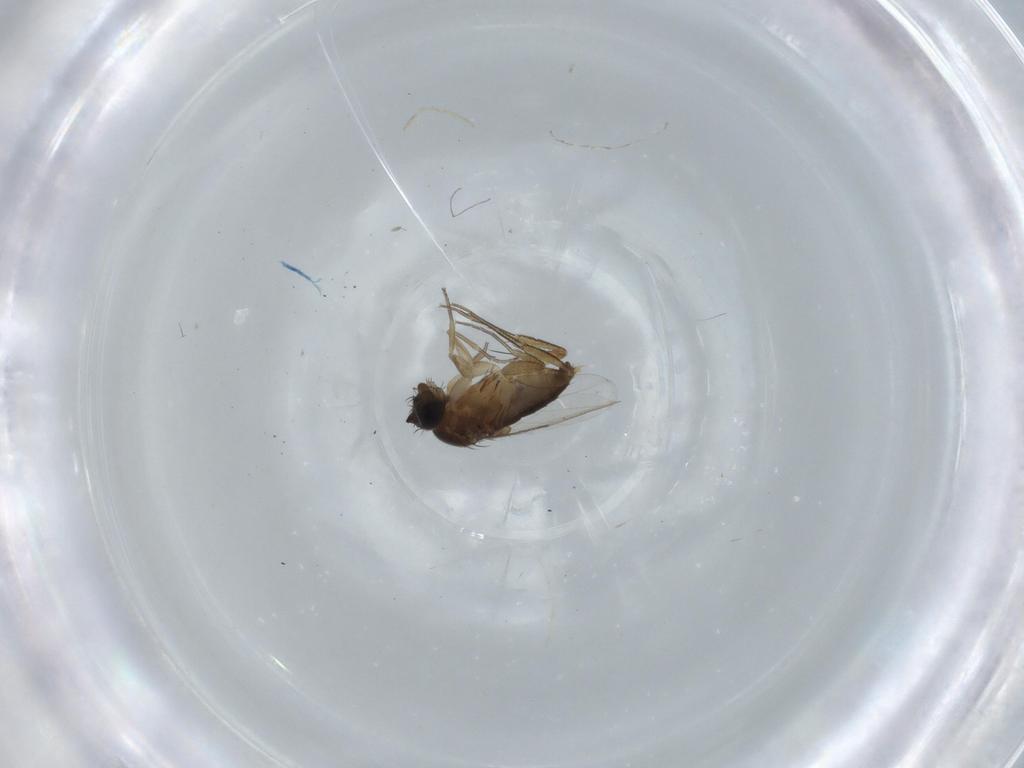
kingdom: Animalia
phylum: Arthropoda
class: Insecta
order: Diptera
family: Phoridae
